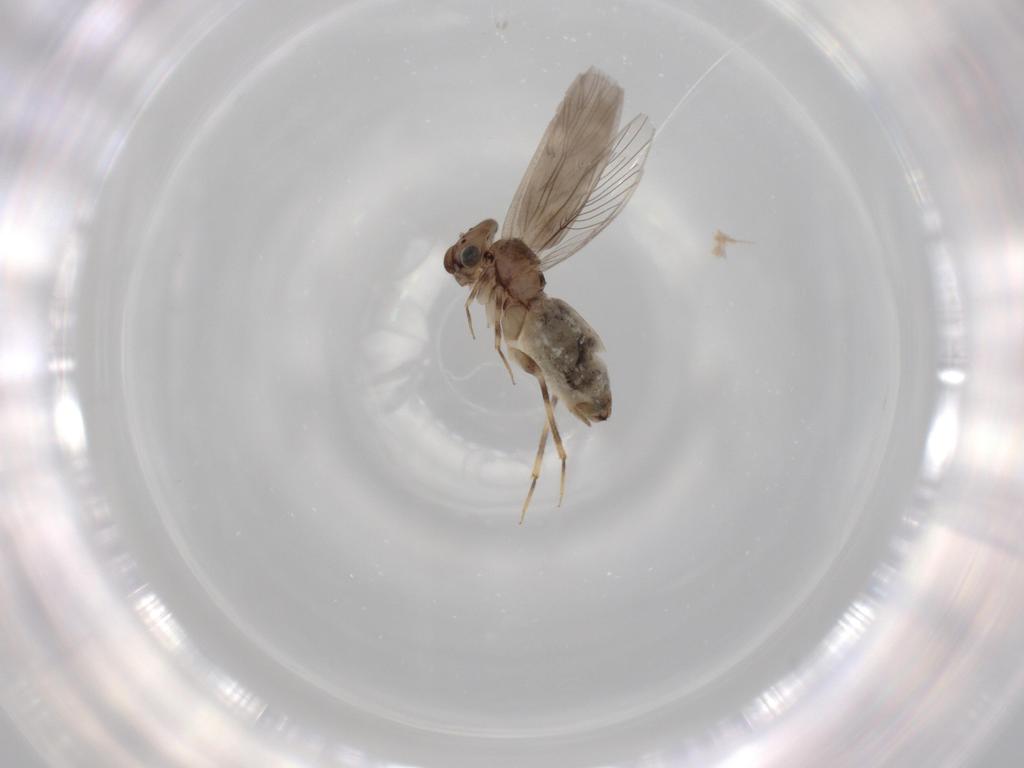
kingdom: Animalia
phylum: Arthropoda
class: Insecta
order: Psocodea
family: Lepidopsocidae
